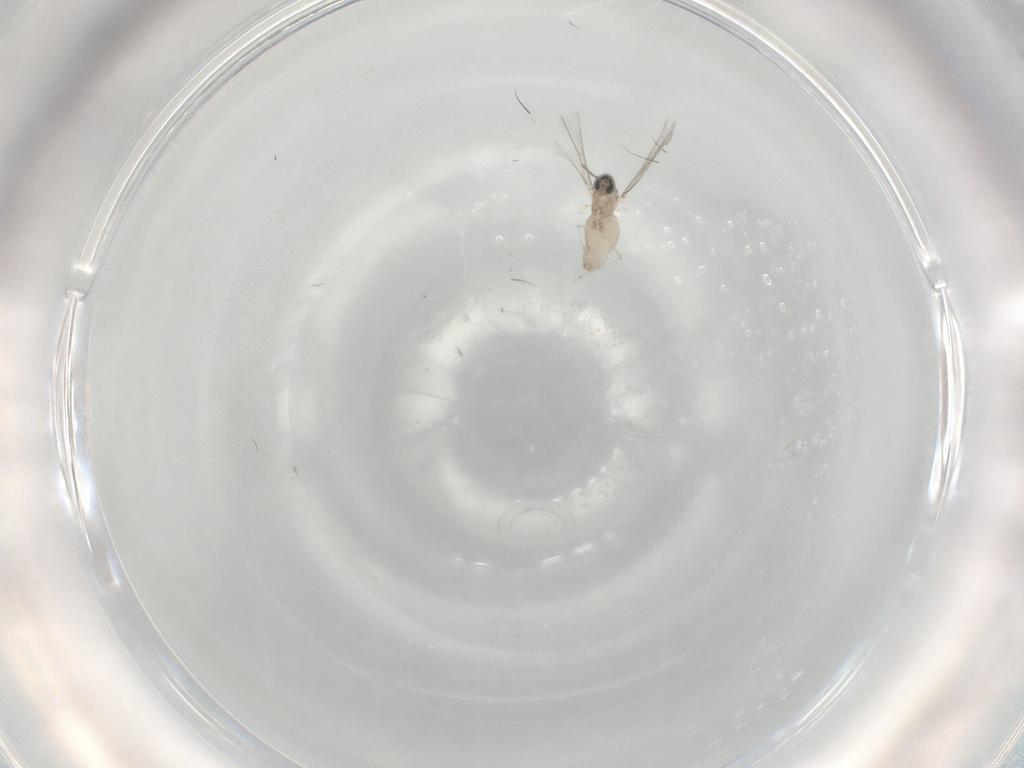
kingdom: Animalia
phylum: Arthropoda
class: Insecta
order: Diptera
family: Cecidomyiidae
